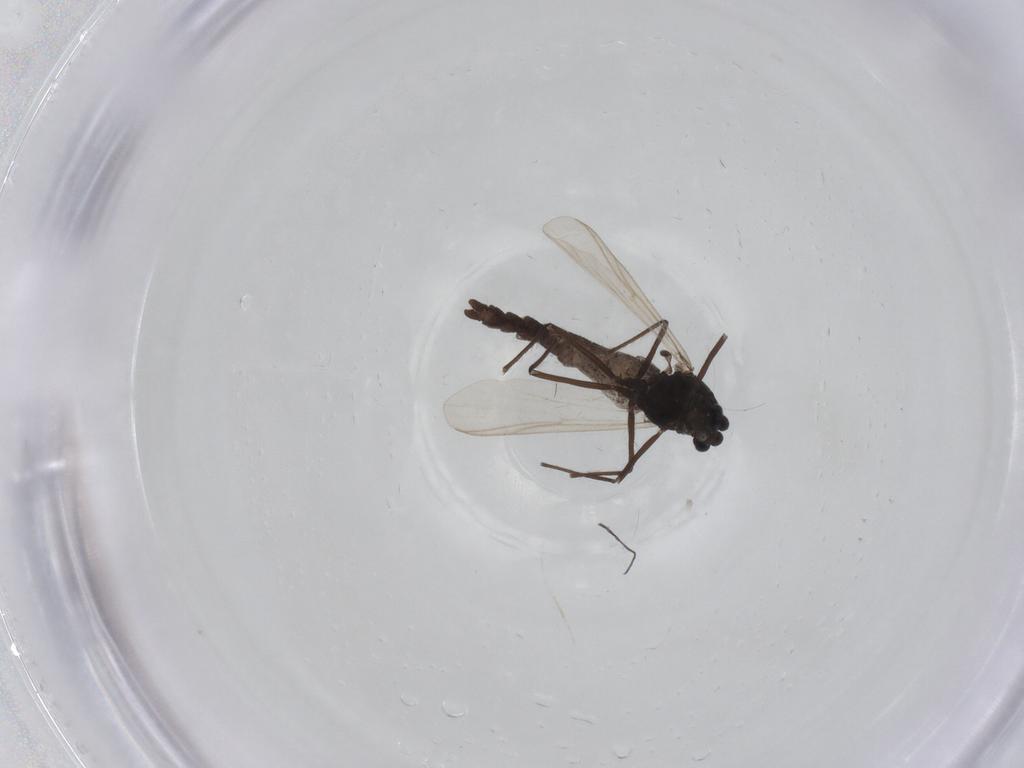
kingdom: Animalia
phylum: Arthropoda
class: Insecta
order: Diptera
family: Chironomidae
